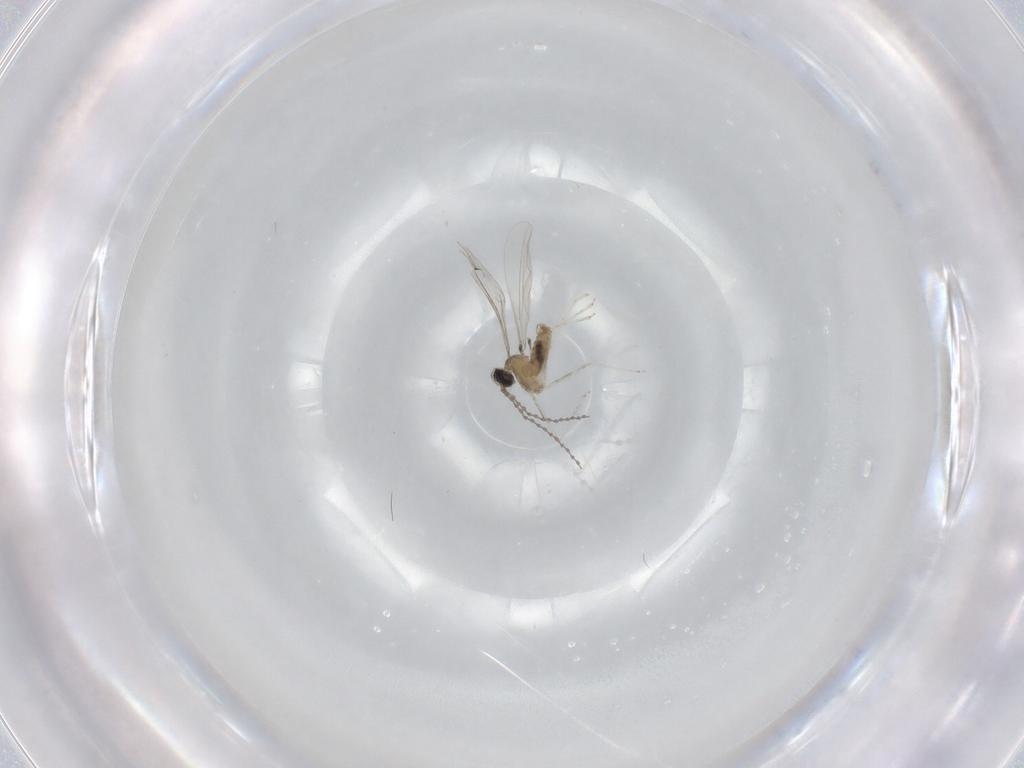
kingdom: Animalia
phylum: Arthropoda
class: Insecta
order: Diptera
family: Cecidomyiidae
